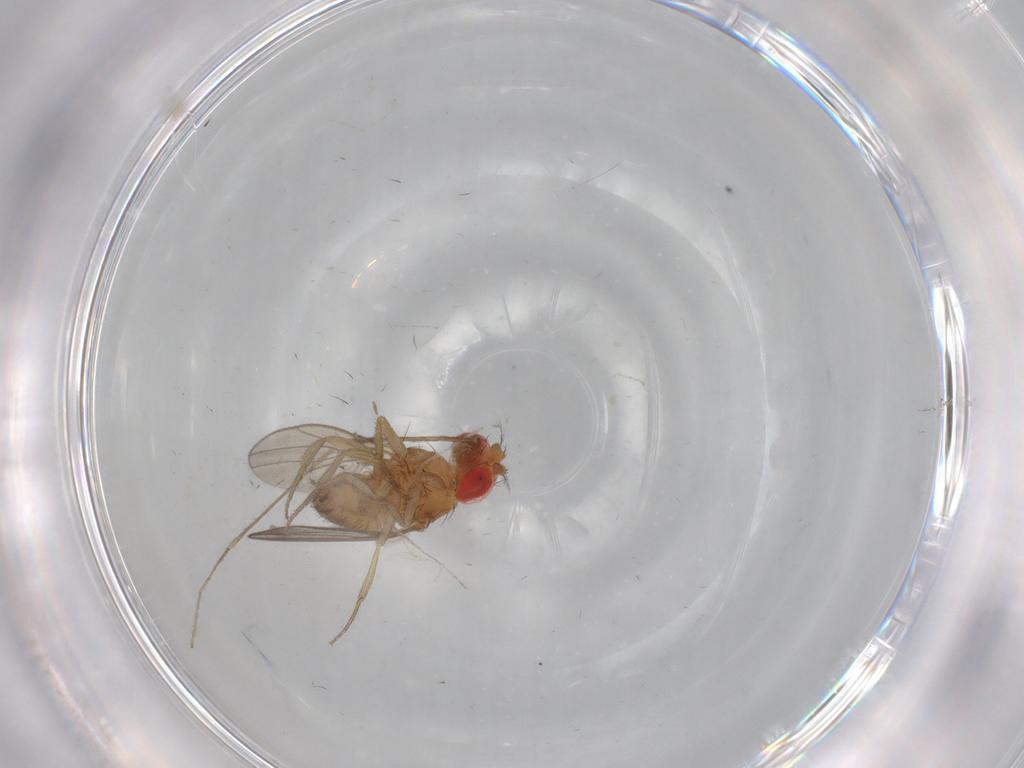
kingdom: Animalia
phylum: Arthropoda
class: Insecta
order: Diptera
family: Drosophilidae
